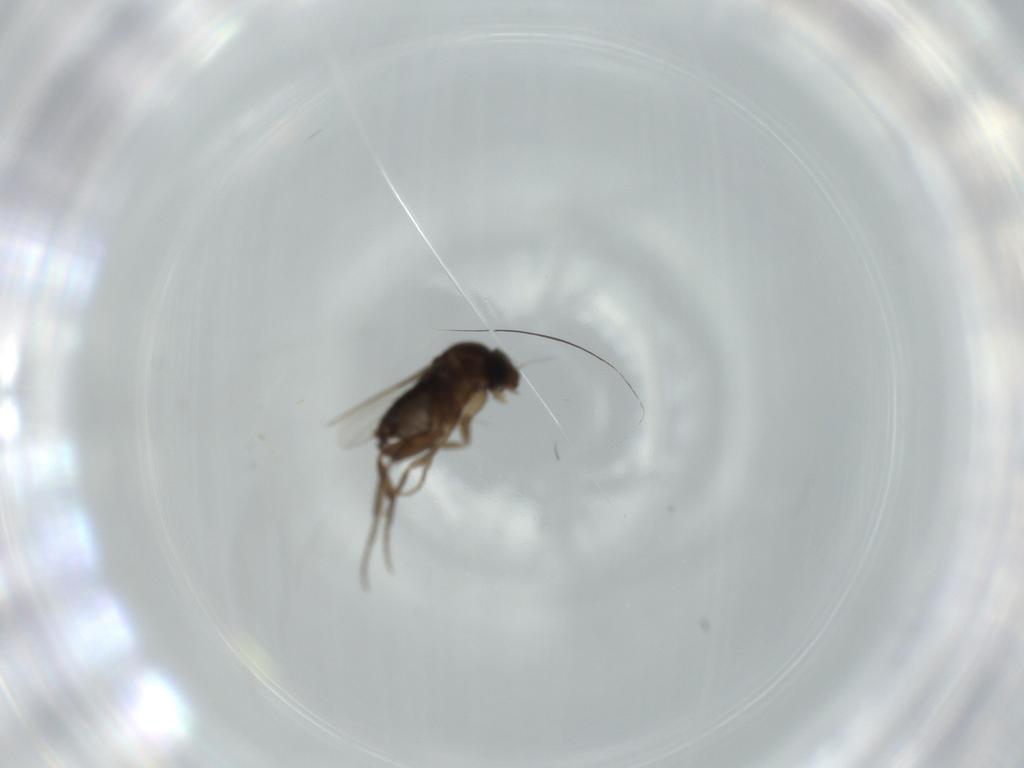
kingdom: Animalia
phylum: Arthropoda
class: Insecta
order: Diptera
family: Phoridae
